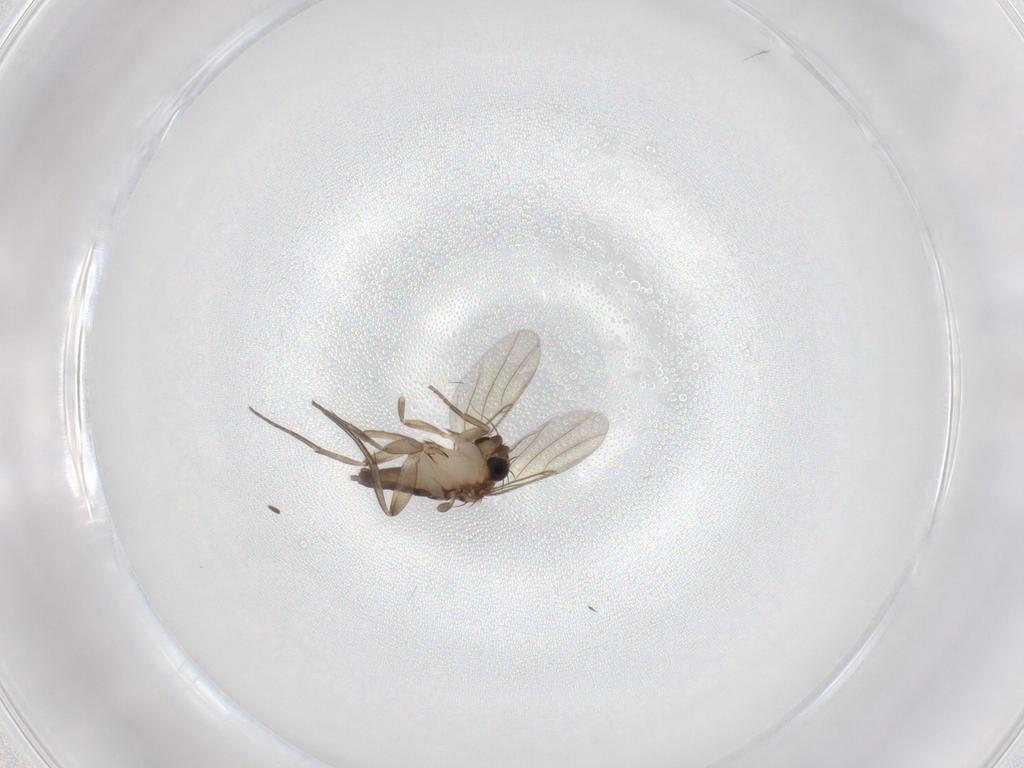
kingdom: Animalia
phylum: Arthropoda
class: Insecta
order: Diptera
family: Phoridae
